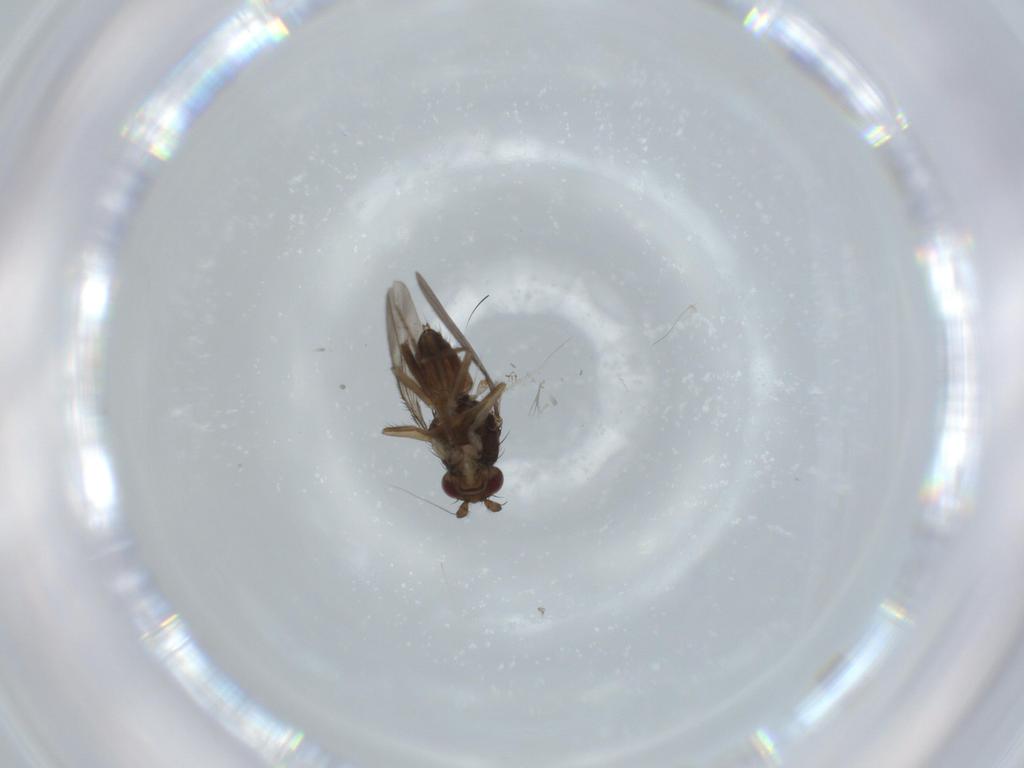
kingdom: Animalia
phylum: Arthropoda
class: Insecta
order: Diptera
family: Sphaeroceridae
